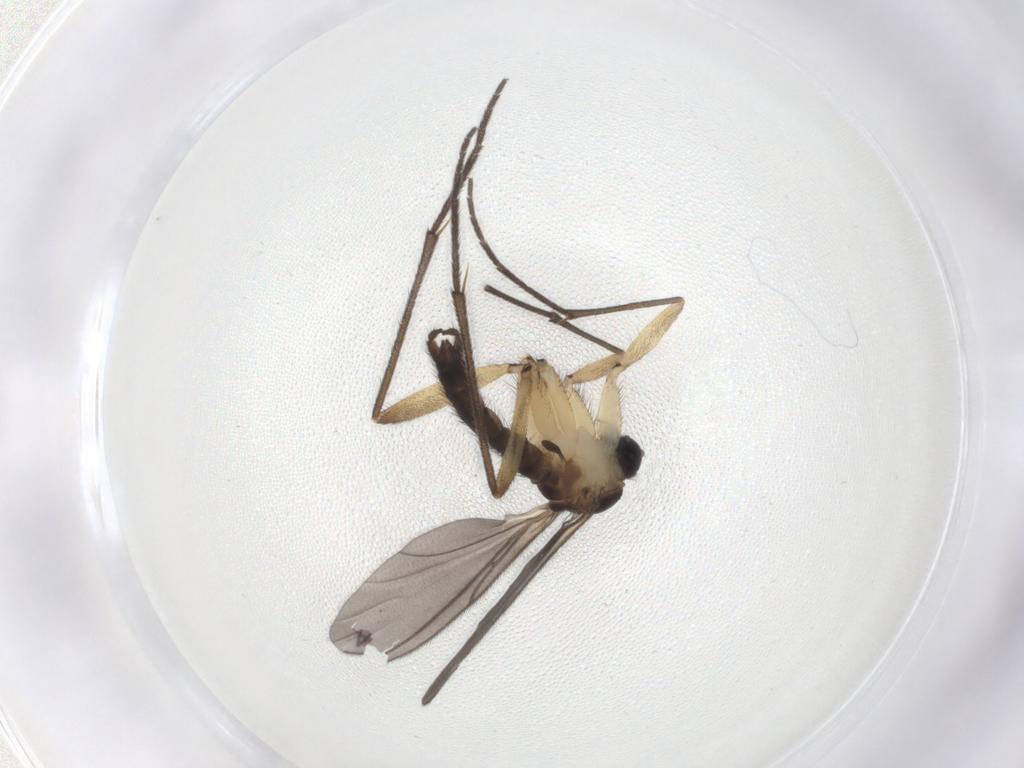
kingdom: Animalia
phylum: Arthropoda
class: Insecta
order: Diptera
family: Sciaridae
